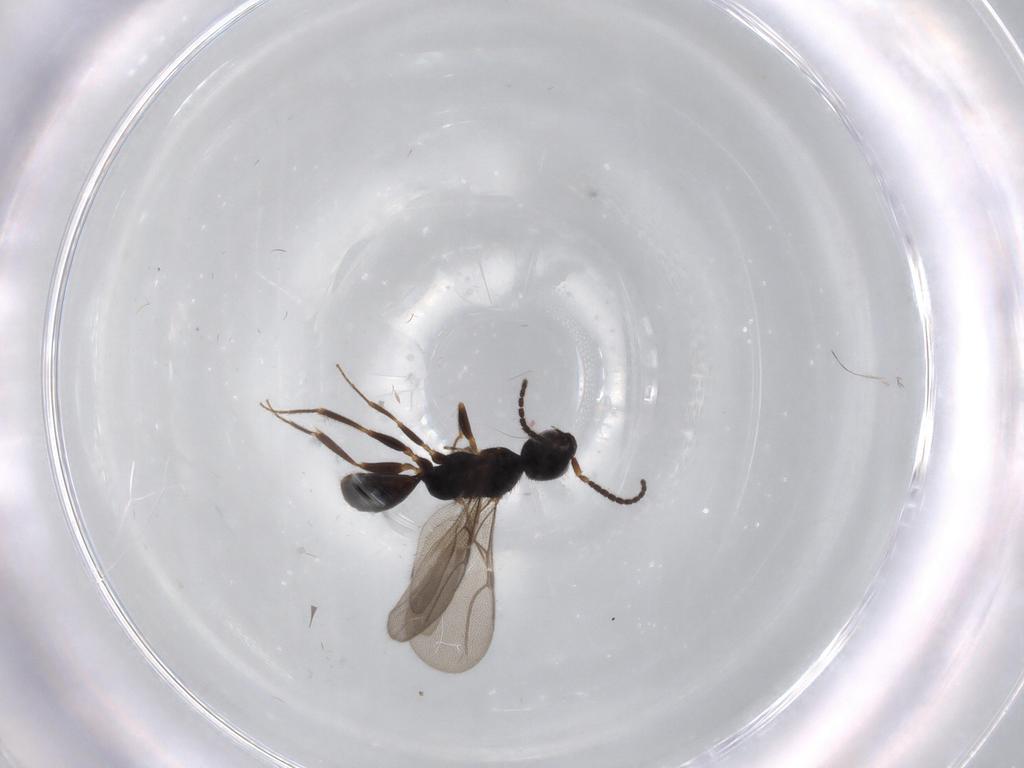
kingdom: Animalia
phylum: Arthropoda
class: Insecta
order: Hymenoptera
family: Bethylidae
